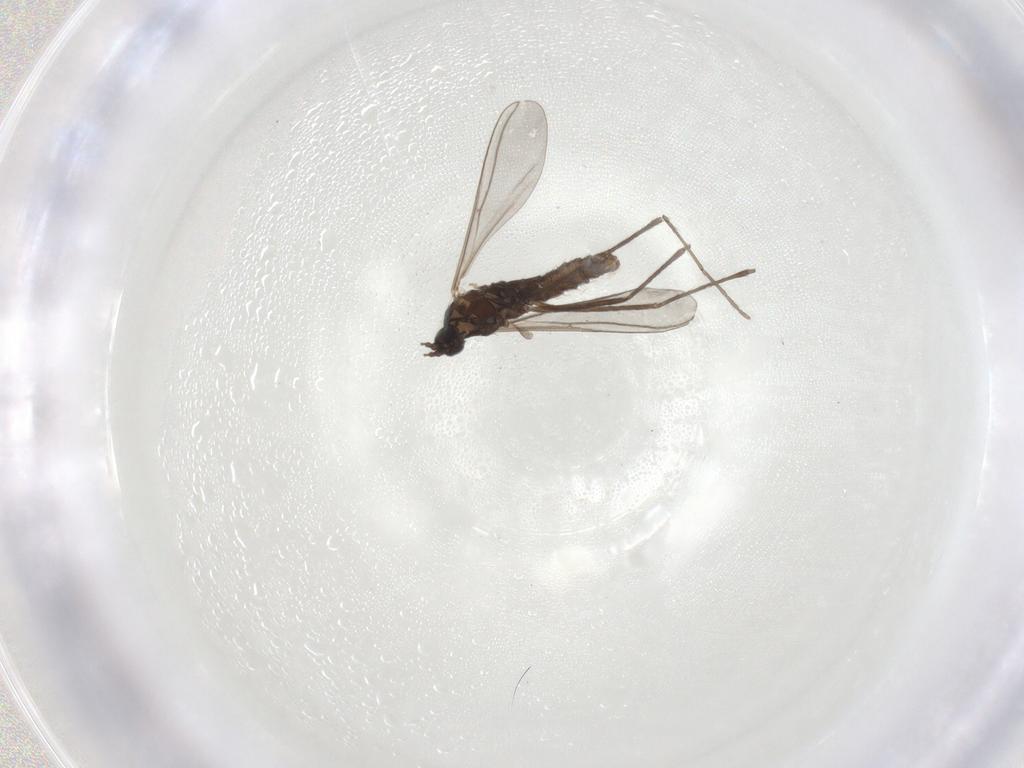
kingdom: Animalia
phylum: Arthropoda
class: Insecta
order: Diptera
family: Cecidomyiidae
